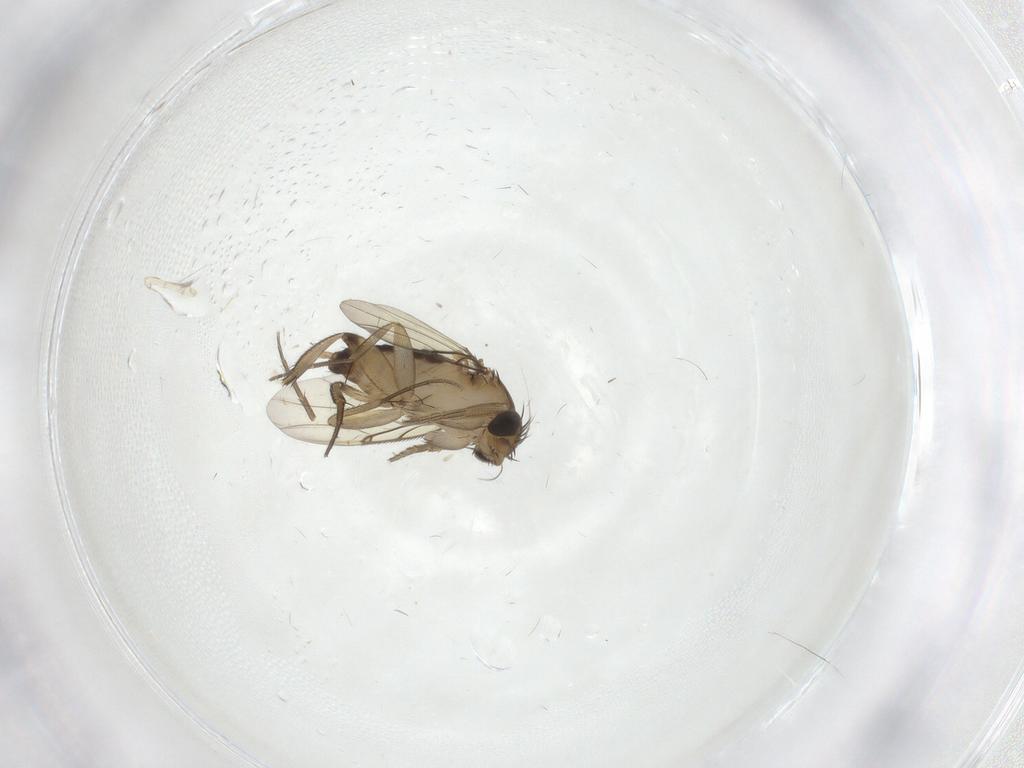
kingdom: Animalia
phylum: Arthropoda
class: Insecta
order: Diptera
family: Phoridae
